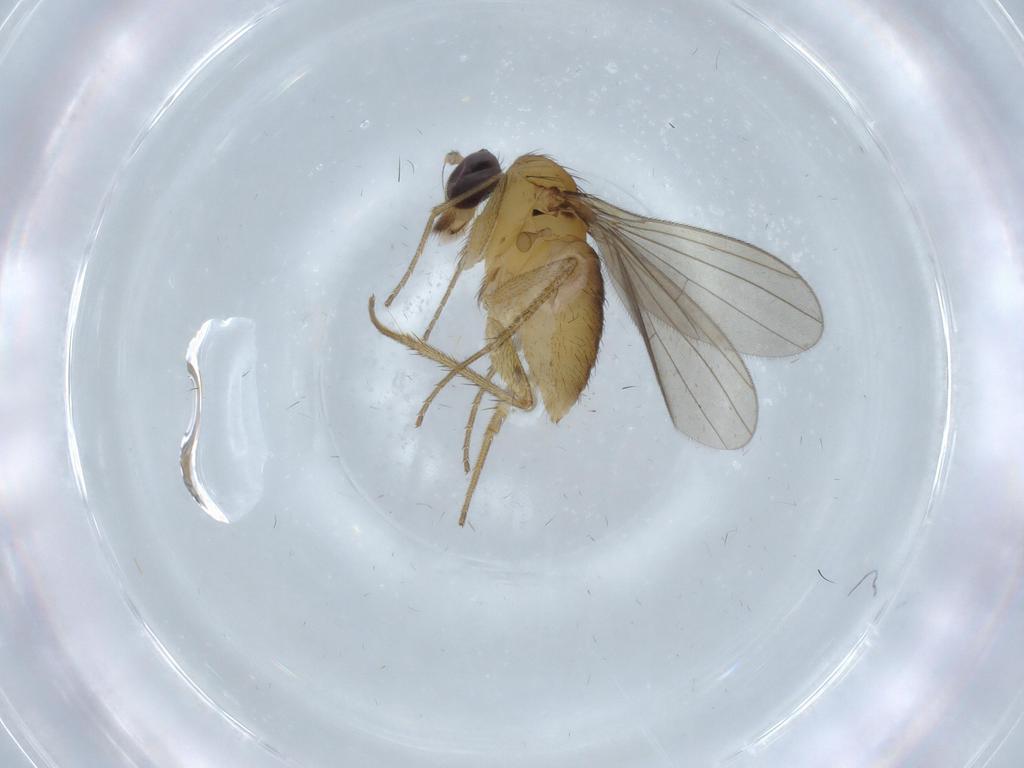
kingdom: Animalia
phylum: Arthropoda
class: Insecta
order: Diptera
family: Dolichopodidae
